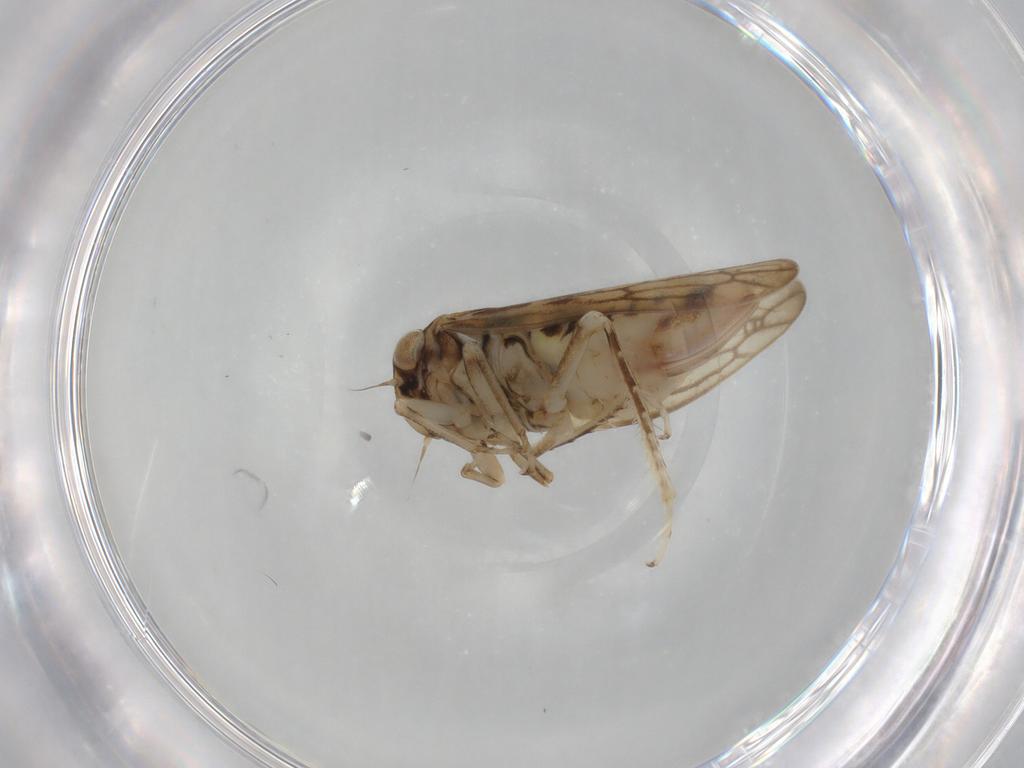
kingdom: Animalia
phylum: Arthropoda
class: Insecta
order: Hemiptera
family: Cicadellidae
